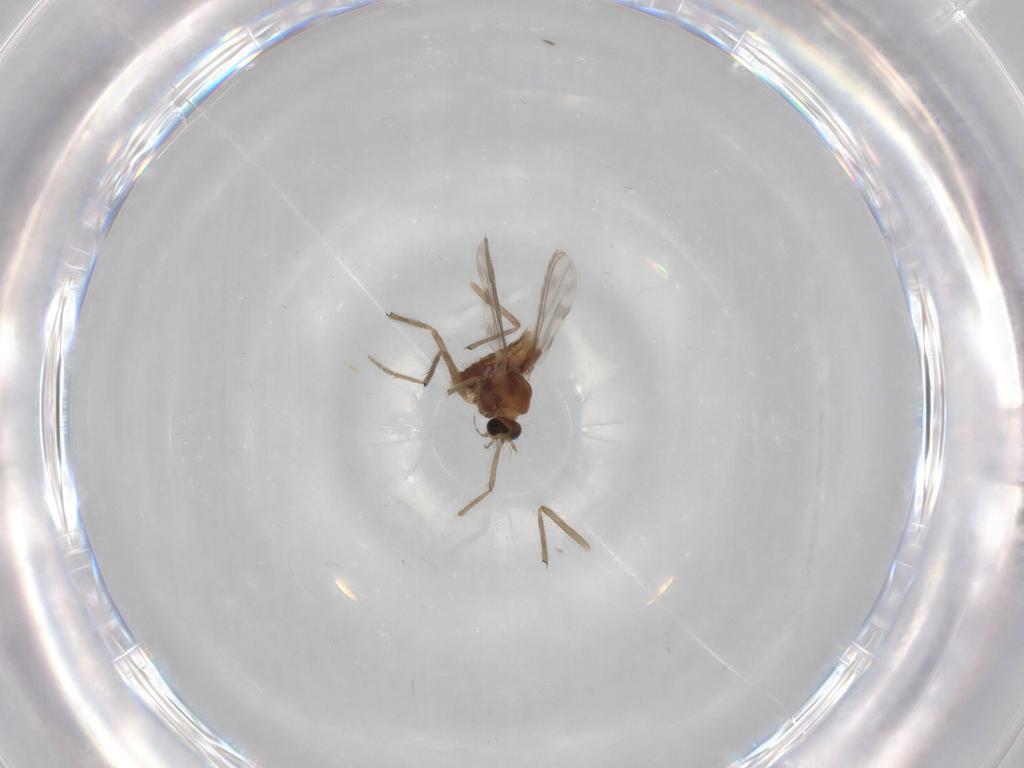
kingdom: Animalia
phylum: Arthropoda
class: Insecta
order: Diptera
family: Chironomidae
